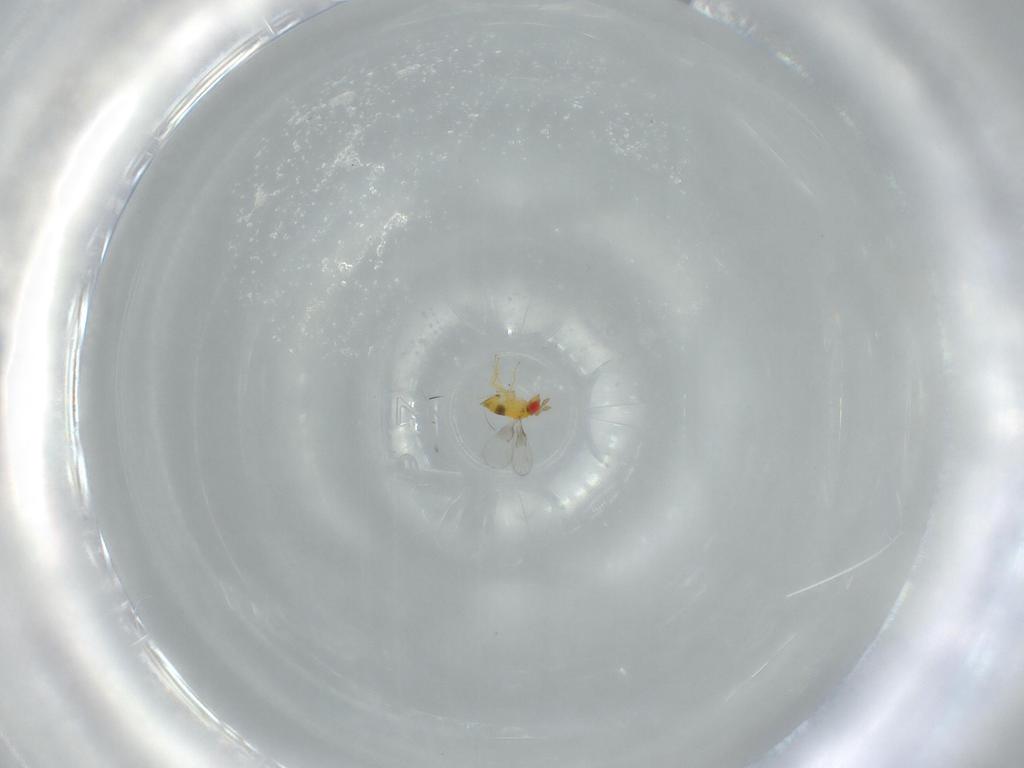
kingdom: Animalia
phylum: Arthropoda
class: Insecta
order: Hymenoptera
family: Trichogrammatidae
